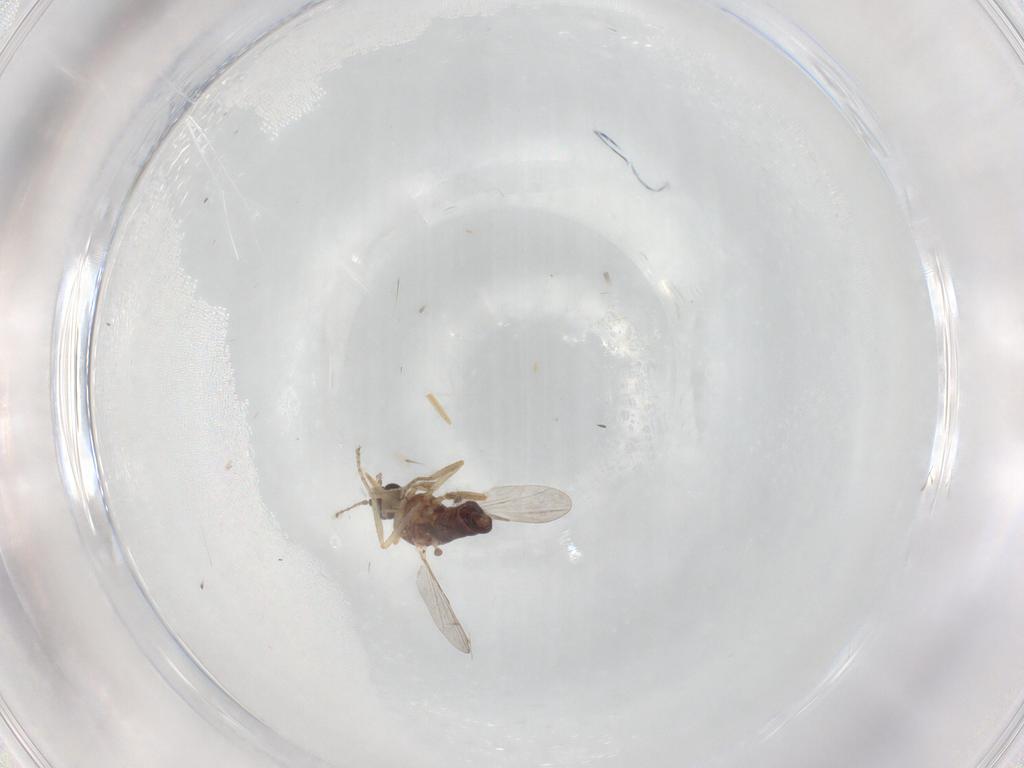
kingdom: Animalia
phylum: Arthropoda
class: Insecta
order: Diptera
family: Ceratopogonidae
